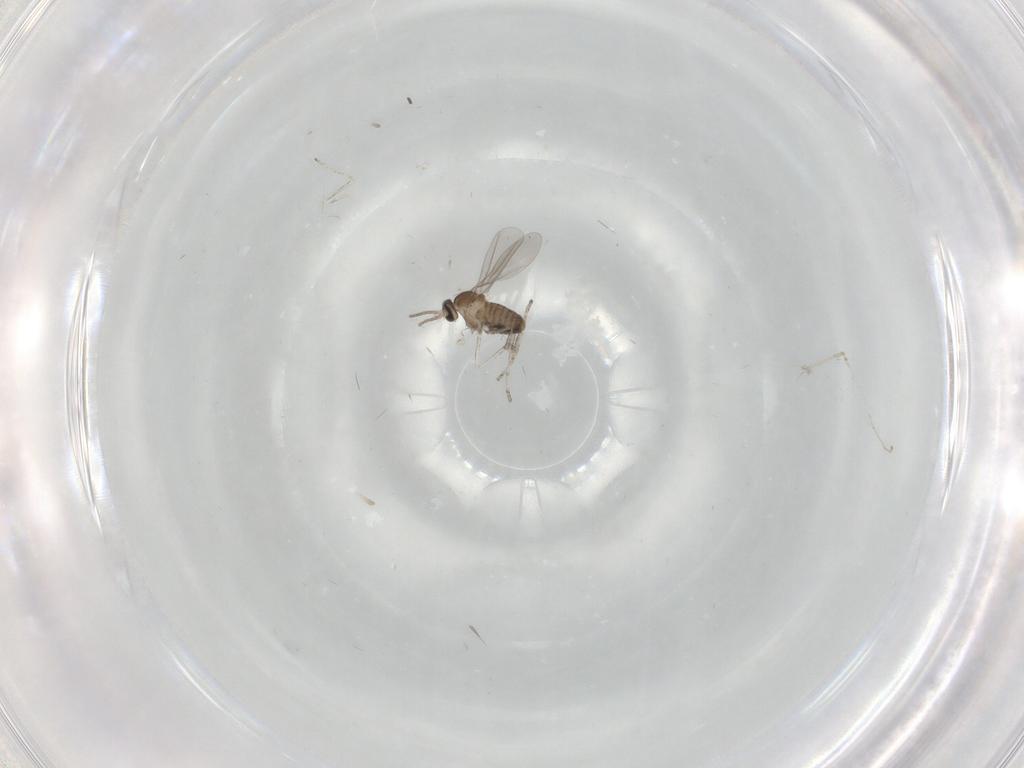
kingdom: Animalia
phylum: Arthropoda
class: Insecta
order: Diptera
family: Cecidomyiidae
